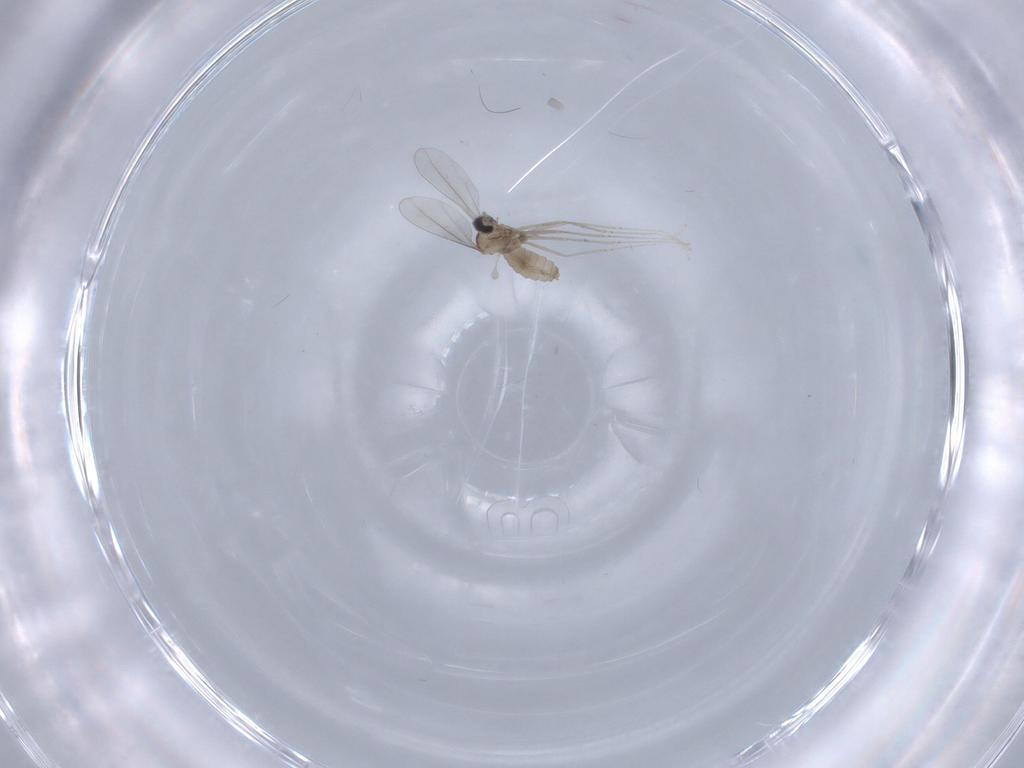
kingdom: Animalia
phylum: Arthropoda
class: Insecta
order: Diptera
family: Cecidomyiidae
